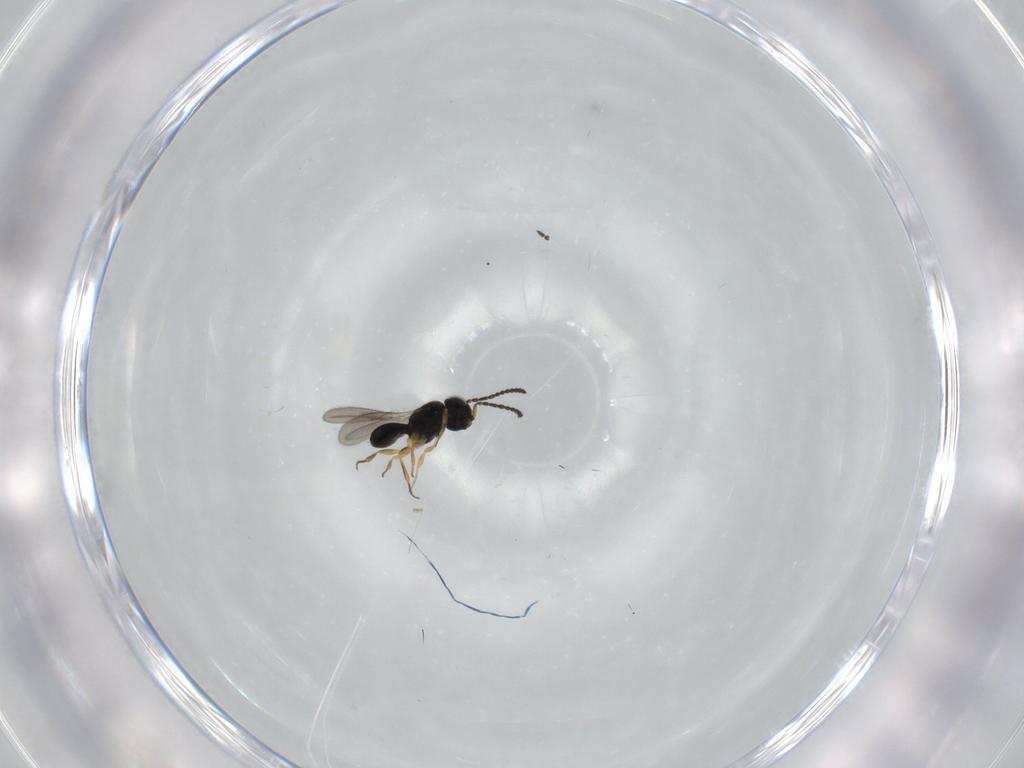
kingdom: Animalia
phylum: Arthropoda
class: Insecta
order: Hymenoptera
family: Scelionidae
